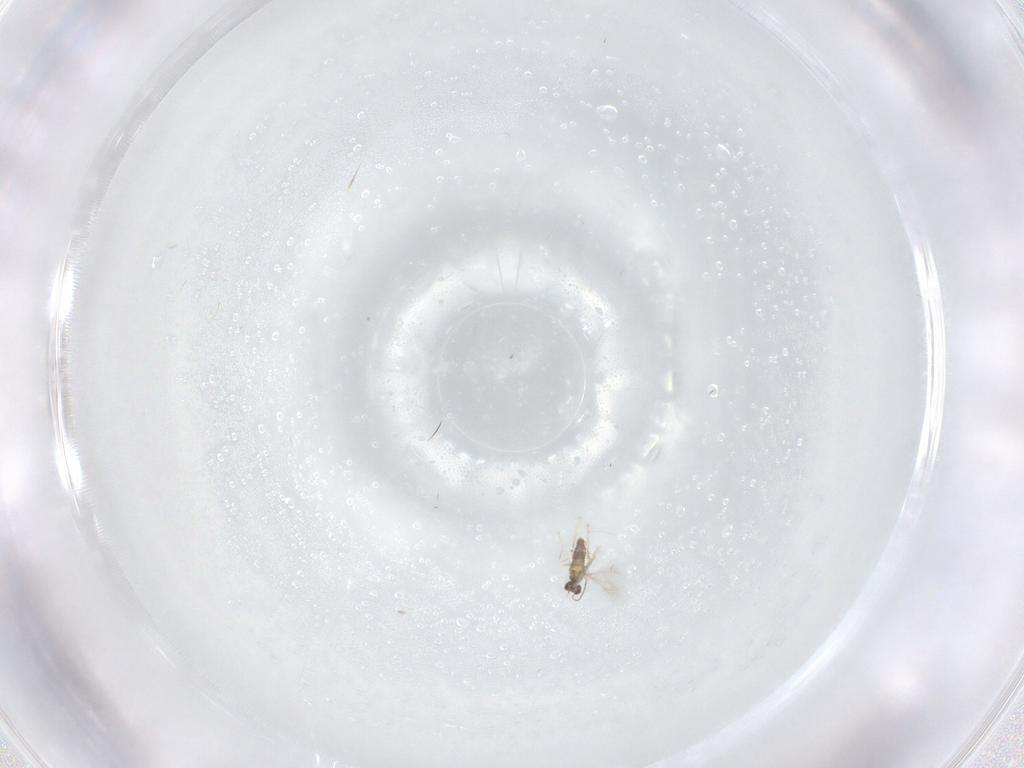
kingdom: Animalia
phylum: Arthropoda
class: Insecta
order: Hymenoptera
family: Mymaridae
